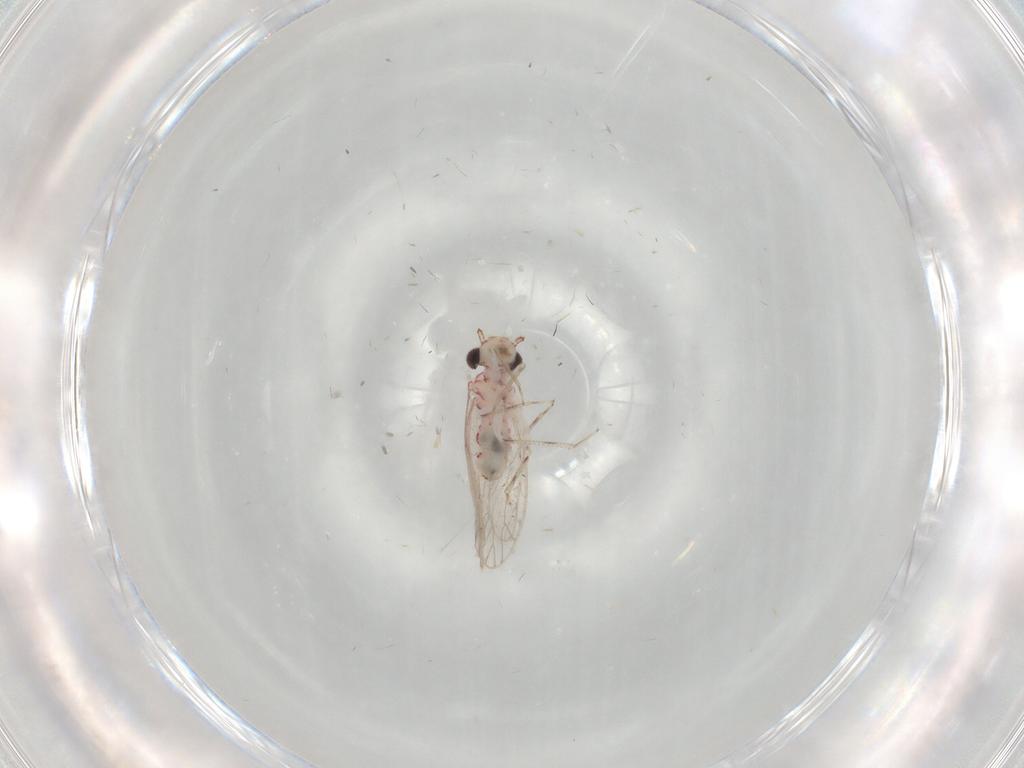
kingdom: Animalia
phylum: Arthropoda
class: Insecta
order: Psocodea
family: Caeciliusidae
